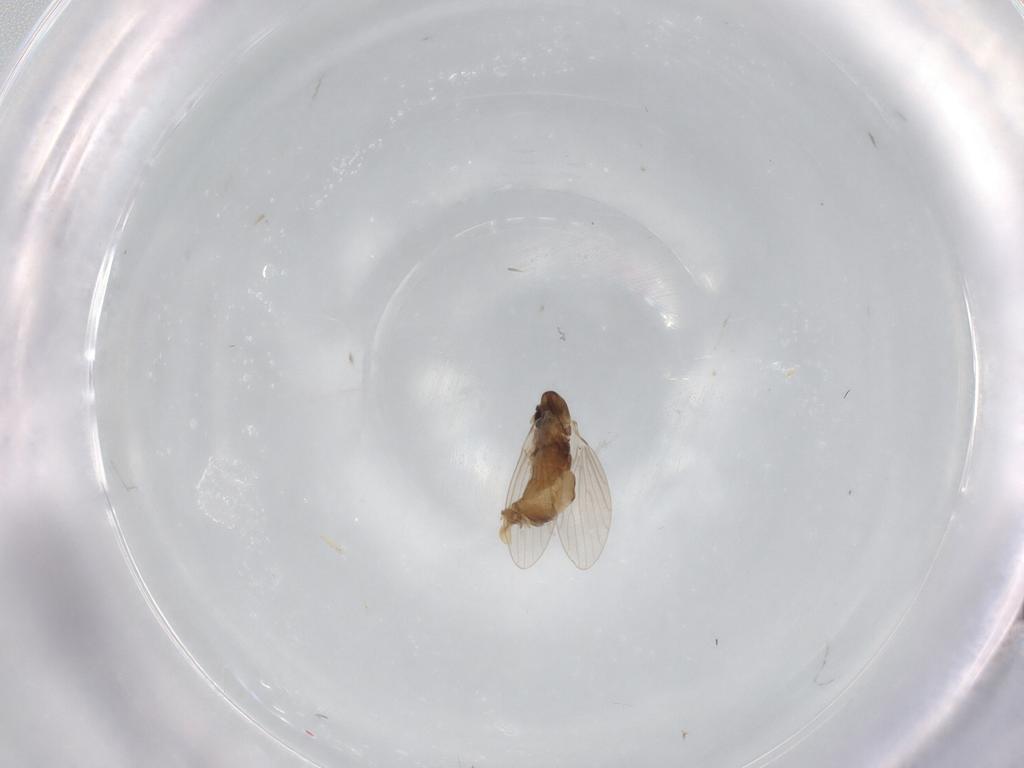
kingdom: Animalia
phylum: Arthropoda
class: Insecta
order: Diptera
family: Psychodidae
